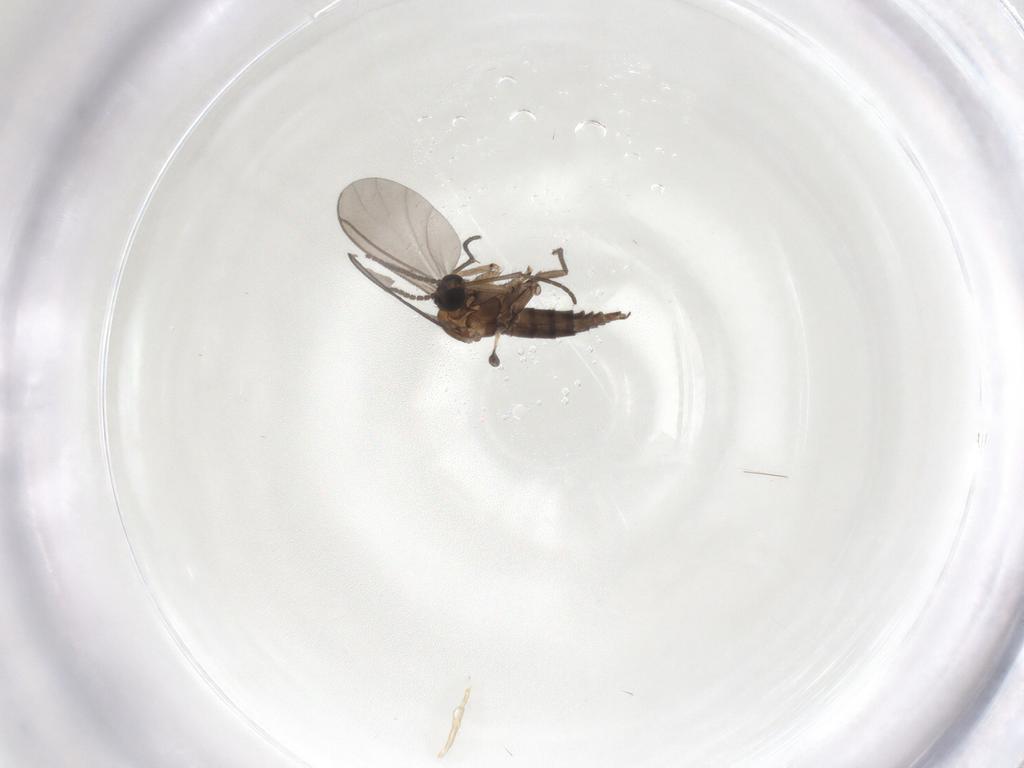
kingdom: Animalia
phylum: Arthropoda
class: Insecta
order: Diptera
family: Sciaridae
